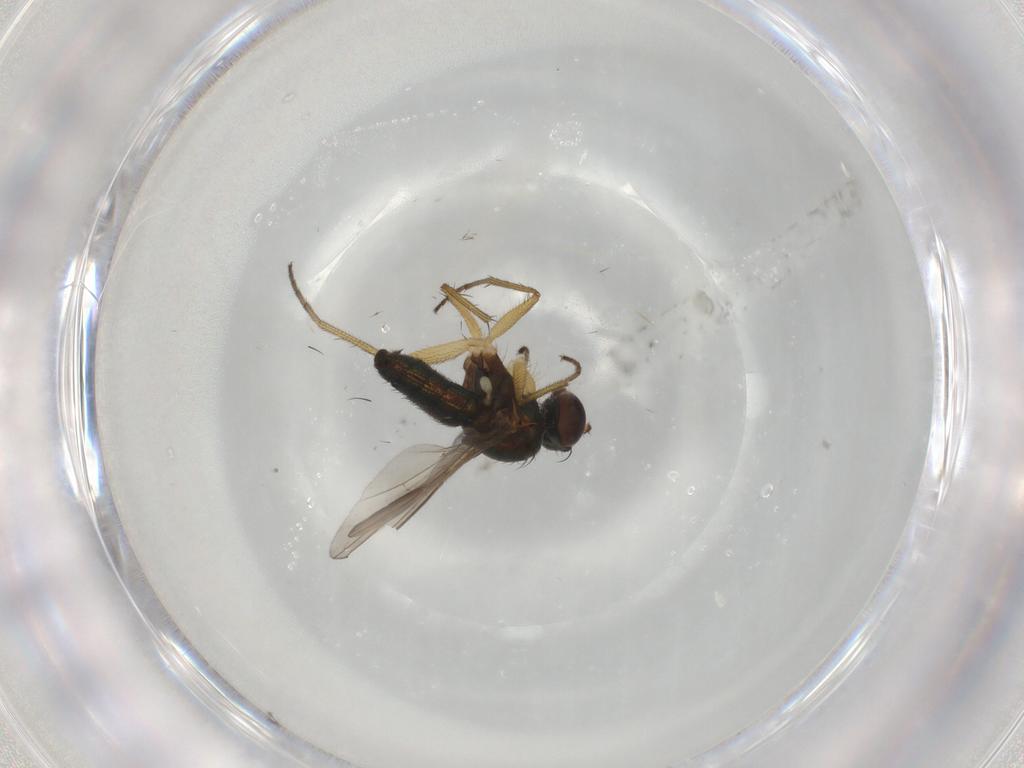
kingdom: Animalia
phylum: Arthropoda
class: Insecta
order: Diptera
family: Dolichopodidae
